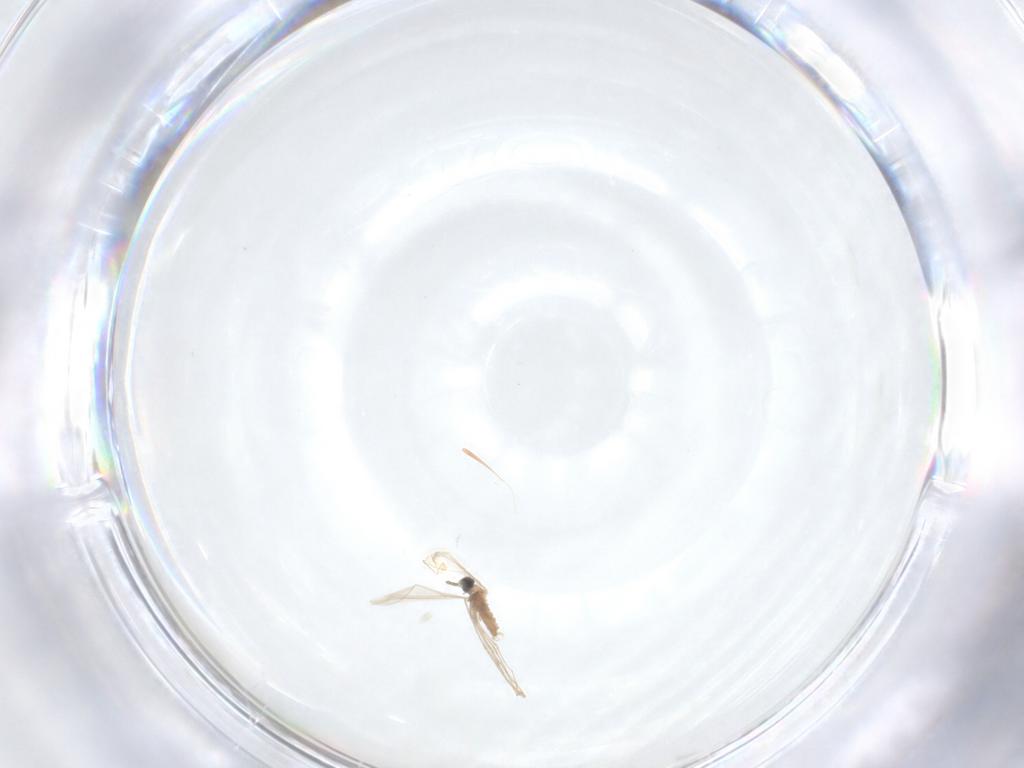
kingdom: Animalia
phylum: Arthropoda
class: Insecta
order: Diptera
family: Cecidomyiidae
